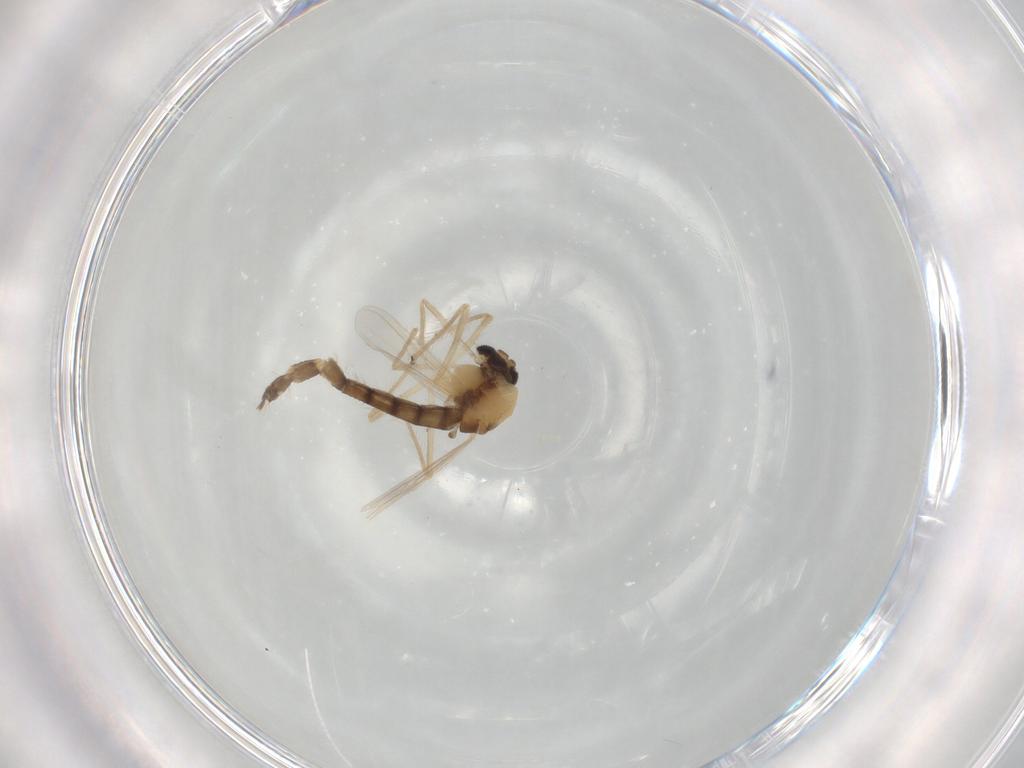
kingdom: Animalia
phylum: Arthropoda
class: Insecta
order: Diptera
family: Chironomidae
